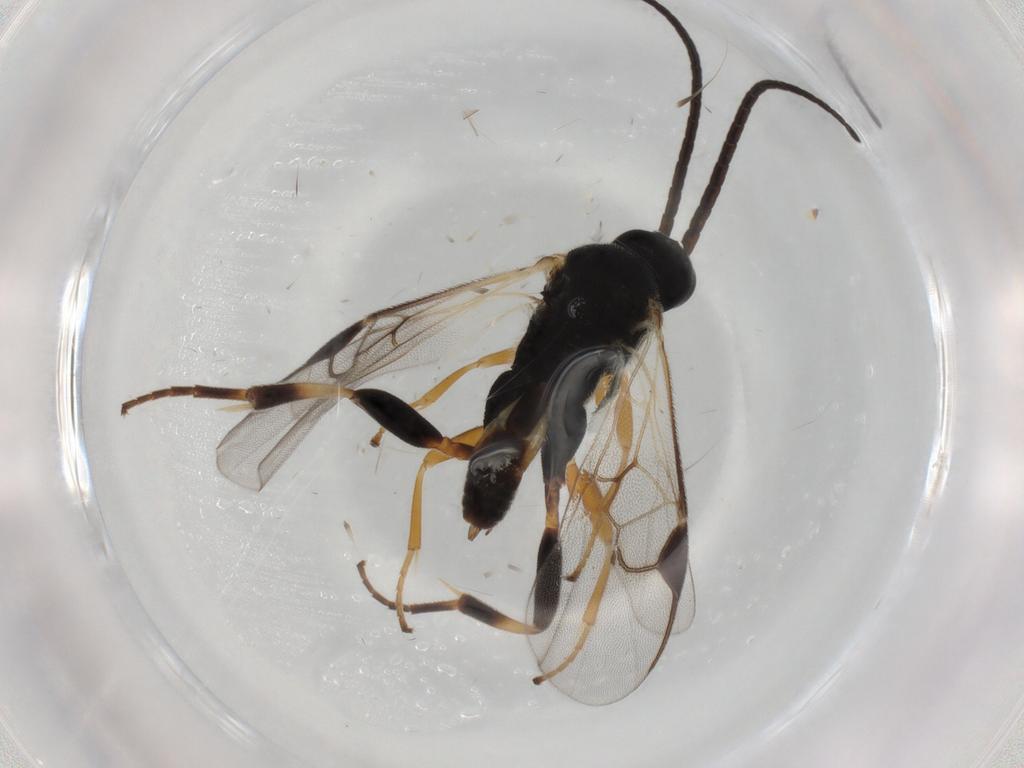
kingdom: Animalia
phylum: Arthropoda
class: Insecta
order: Hymenoptera
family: Braconidae
